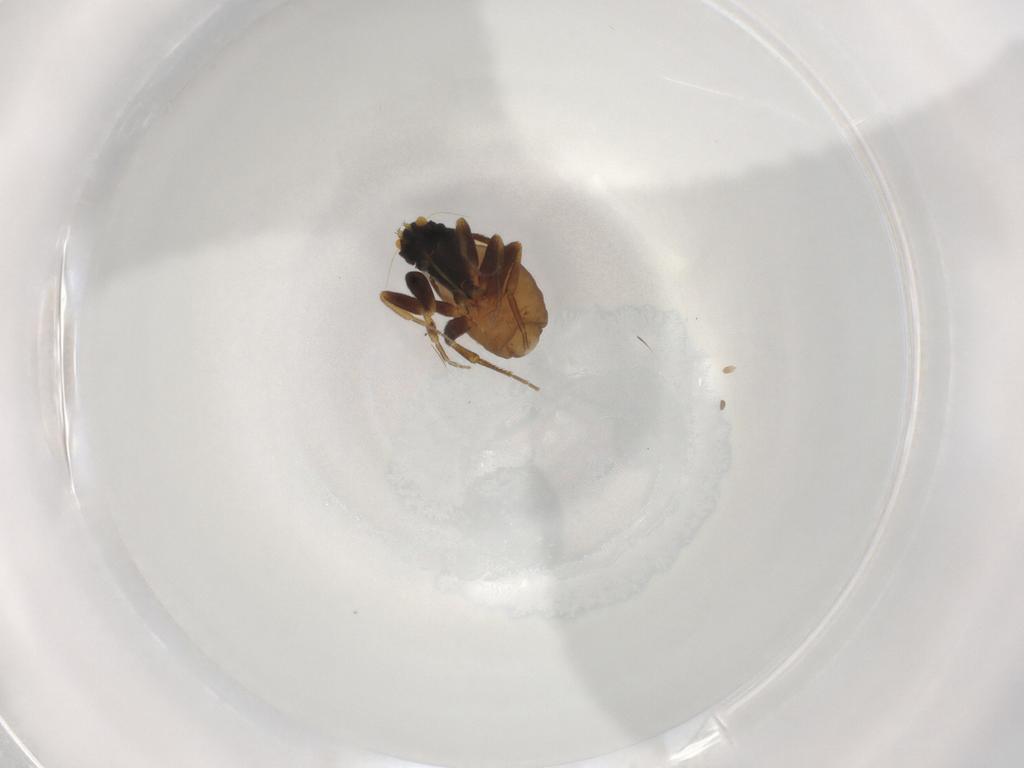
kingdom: Animalia
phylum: Arthropoda
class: Insecta
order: Diptera
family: Phoridae
